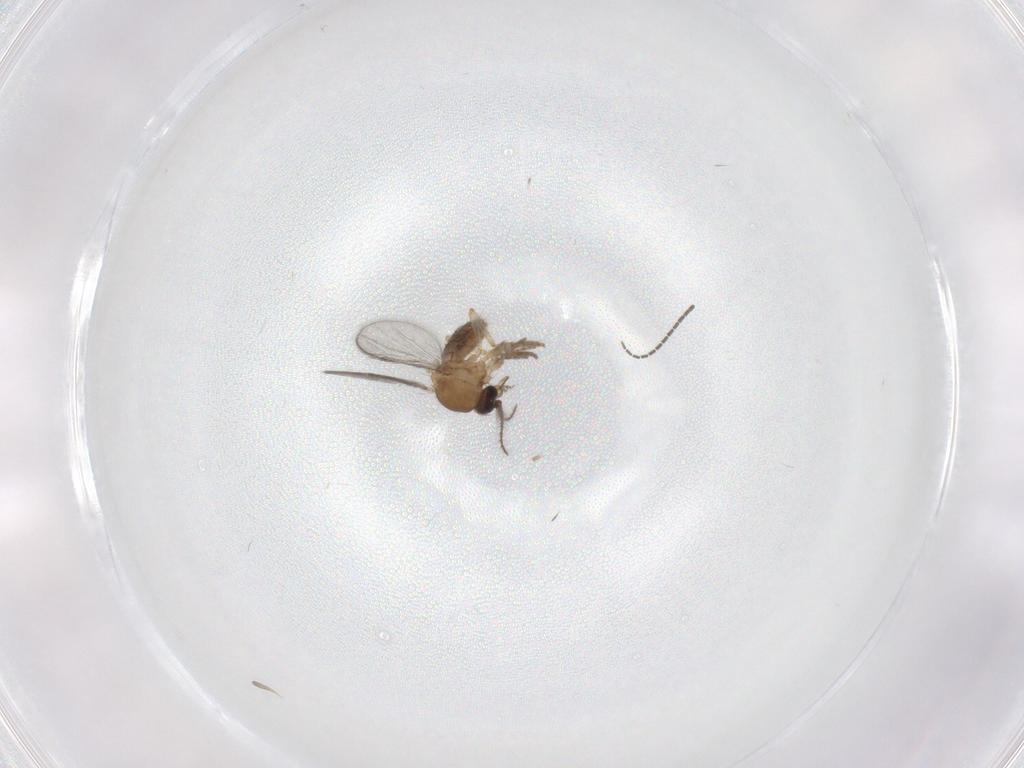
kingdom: Animalia
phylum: Arthropoda
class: Insecta
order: Diptera
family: Sciaridae
